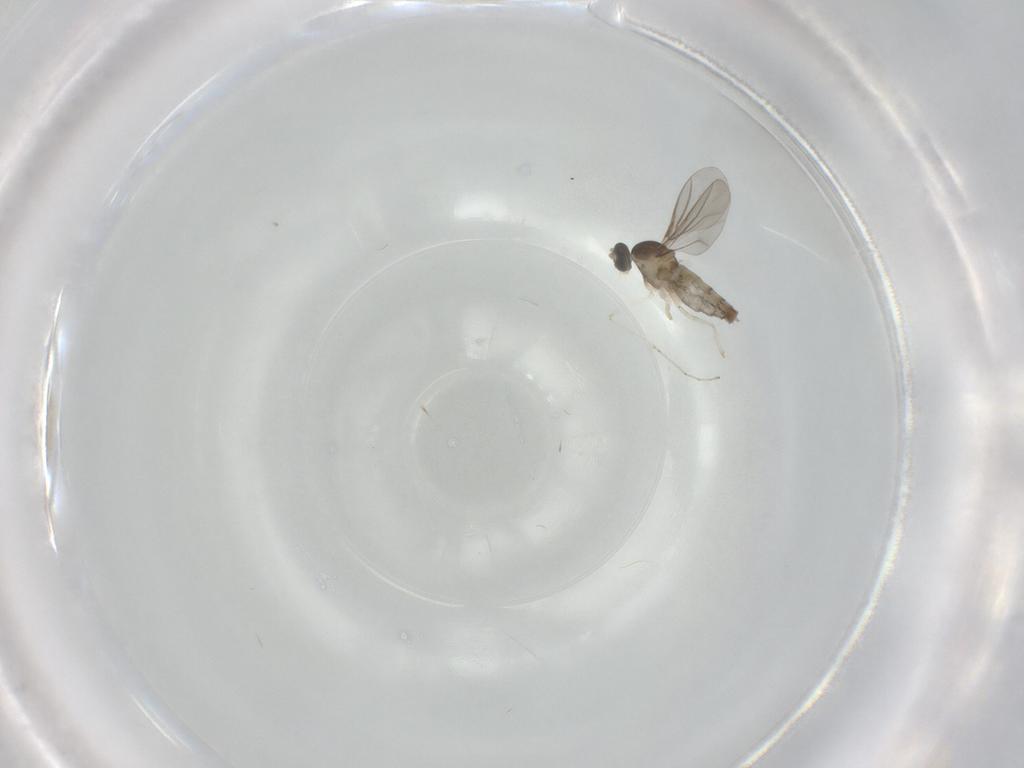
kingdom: Animalia
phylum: Arthropoda
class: Insecta
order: Diptera
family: Cecidomyiidae
